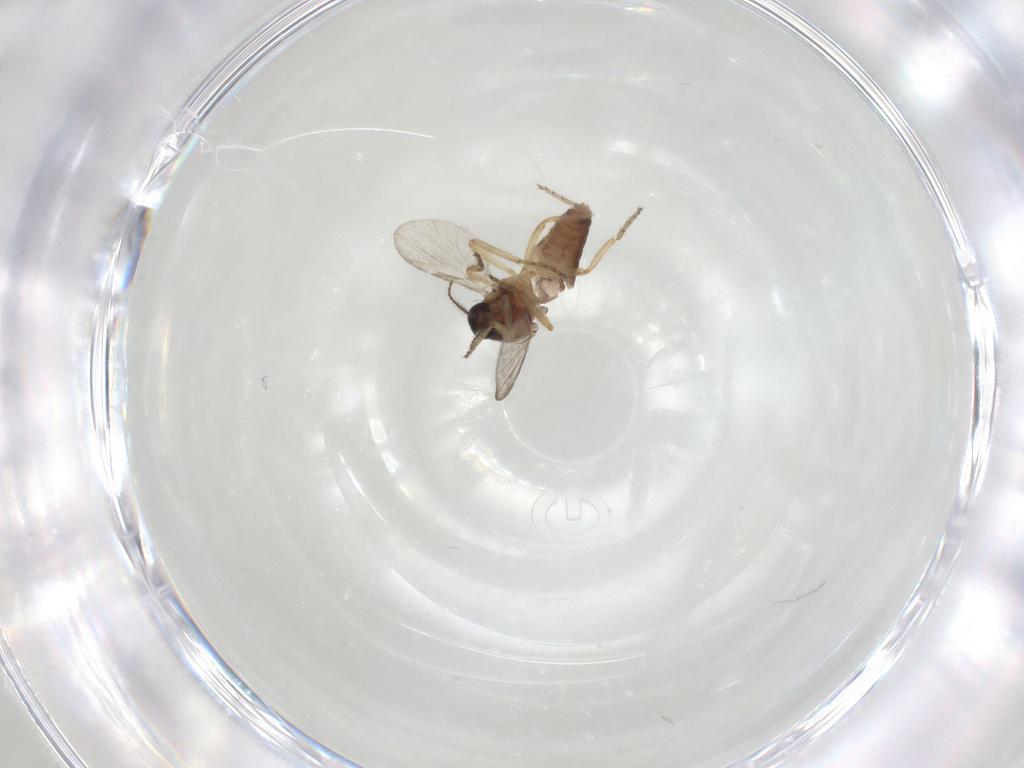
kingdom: Animalia
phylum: Arthropoda
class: Insecta
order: Diptera
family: Ceratopogonidae
